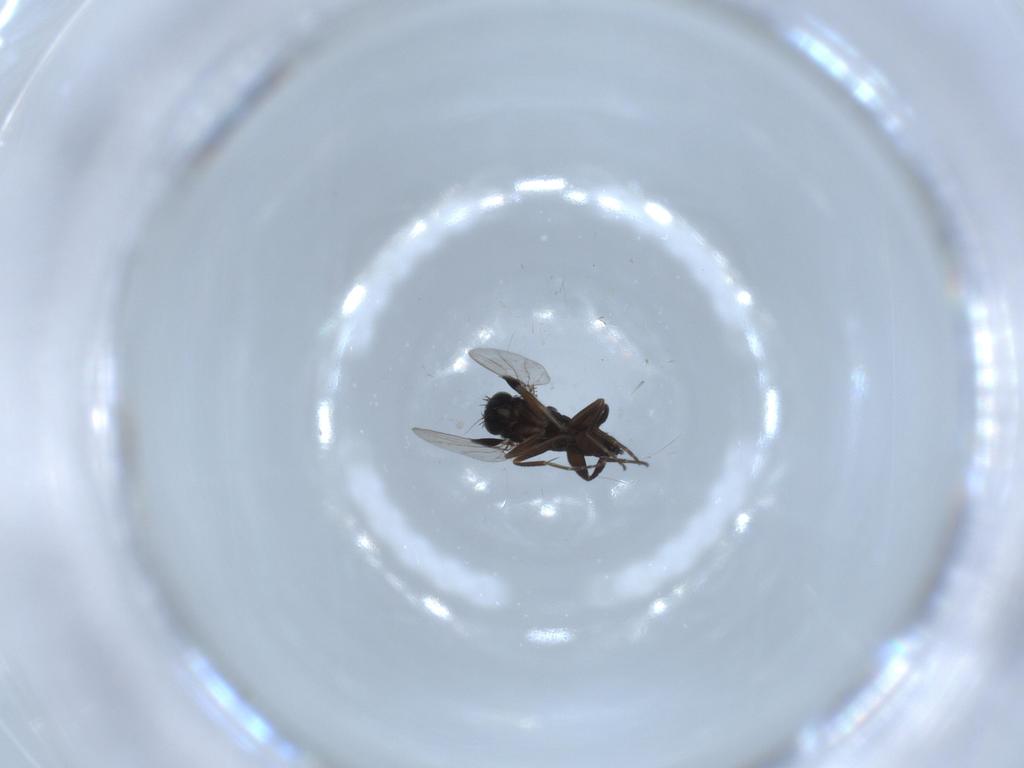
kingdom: Animalia
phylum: Arthropoda
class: Insecta
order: Diptera
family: Phoridae
